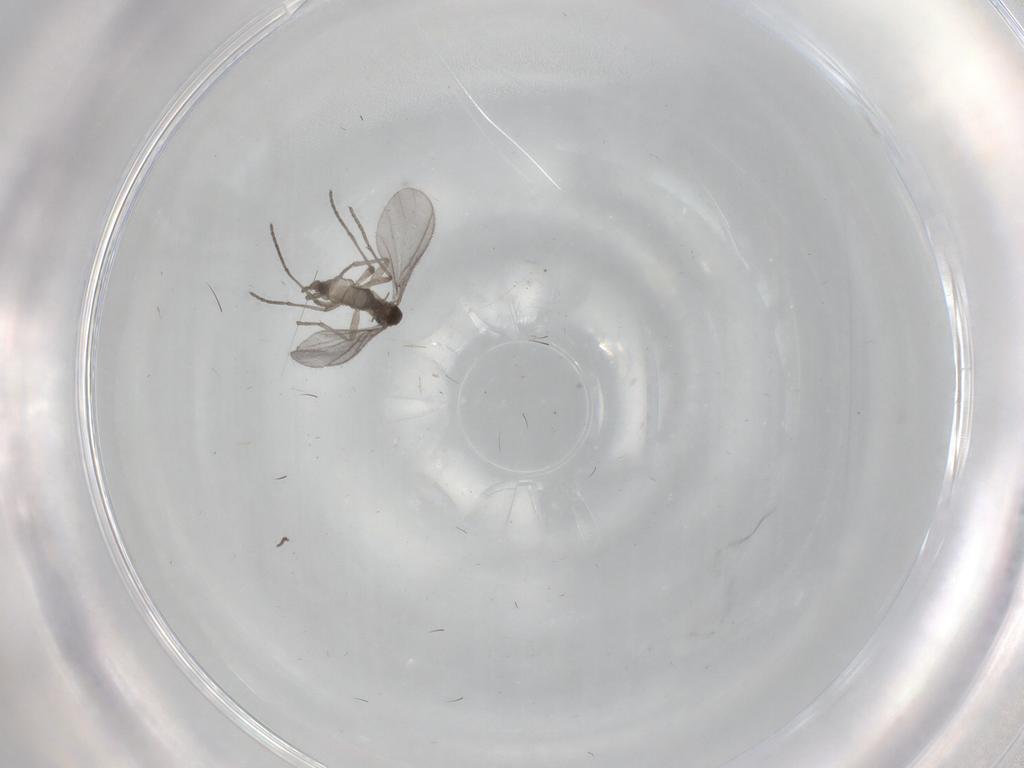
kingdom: Animalia
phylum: Arthropoda
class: Insecta
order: Diptera
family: Sciaridae
